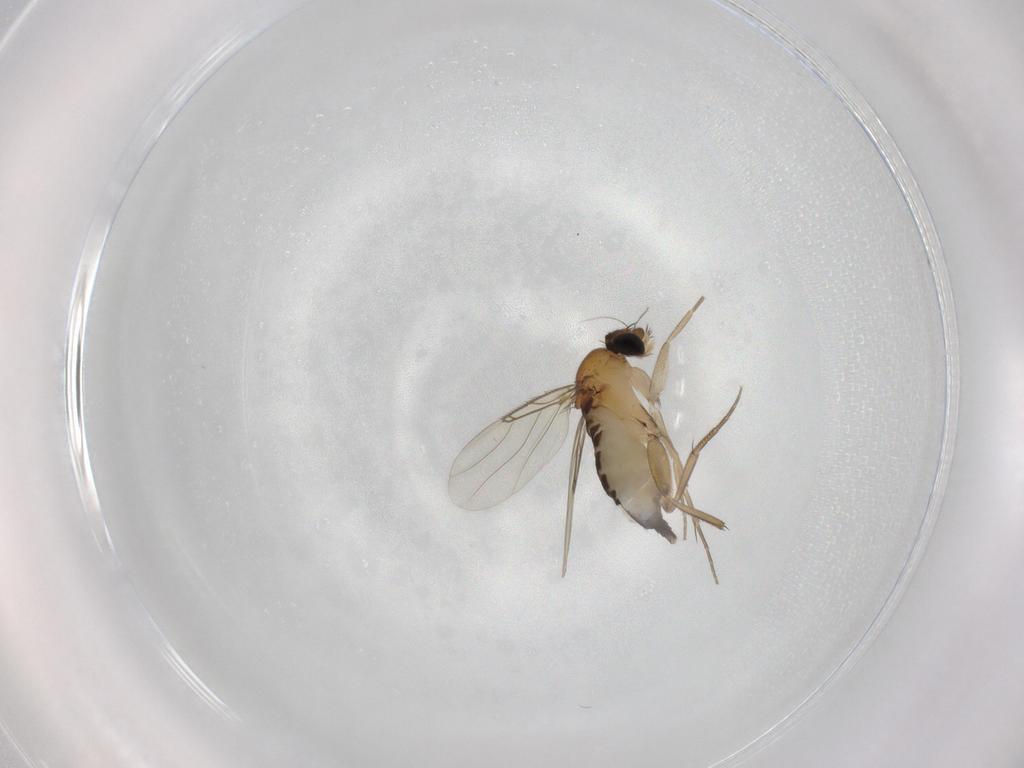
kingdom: Animalia
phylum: Arthropoda
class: Insecta
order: Diptera
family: Phoridae
